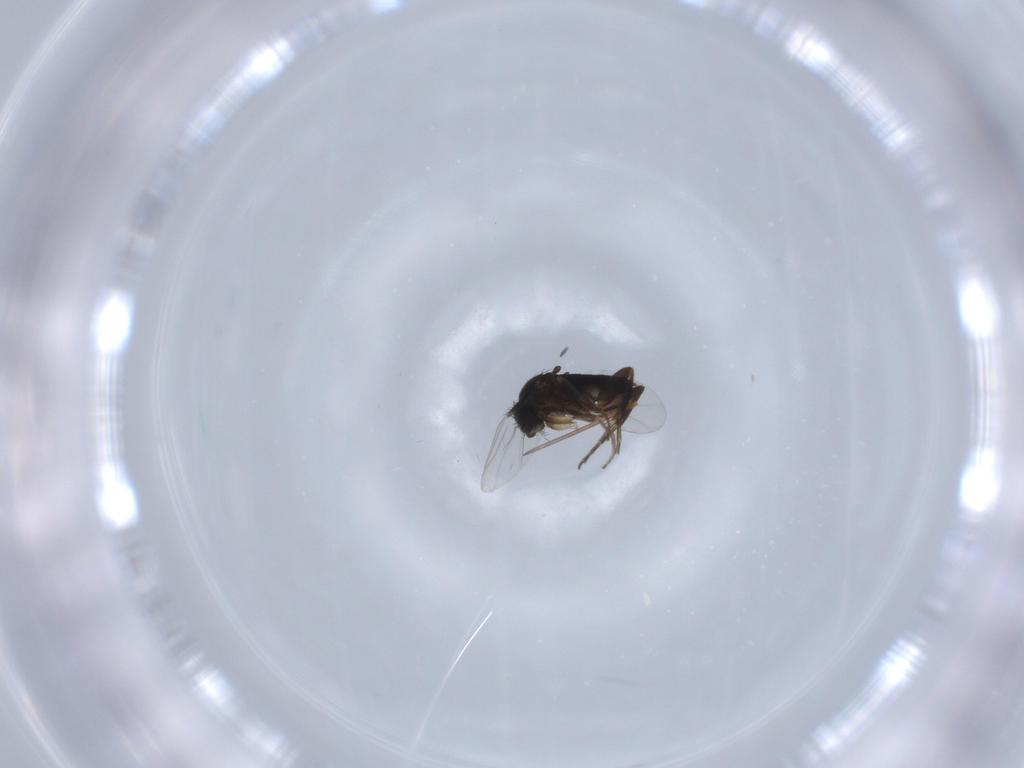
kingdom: Animalia
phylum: Arthropoda
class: Insecta
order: Diptera
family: Phoridae
